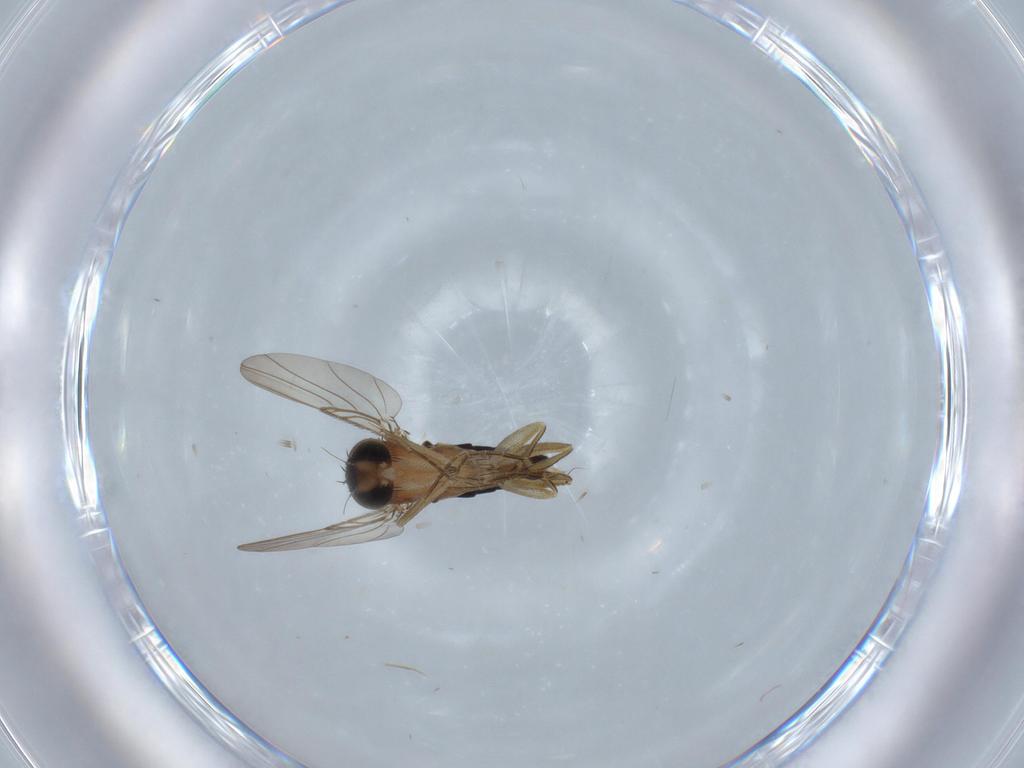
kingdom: Animalia
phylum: Arthropoda
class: Insecta
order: Diptera
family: Phoridae
